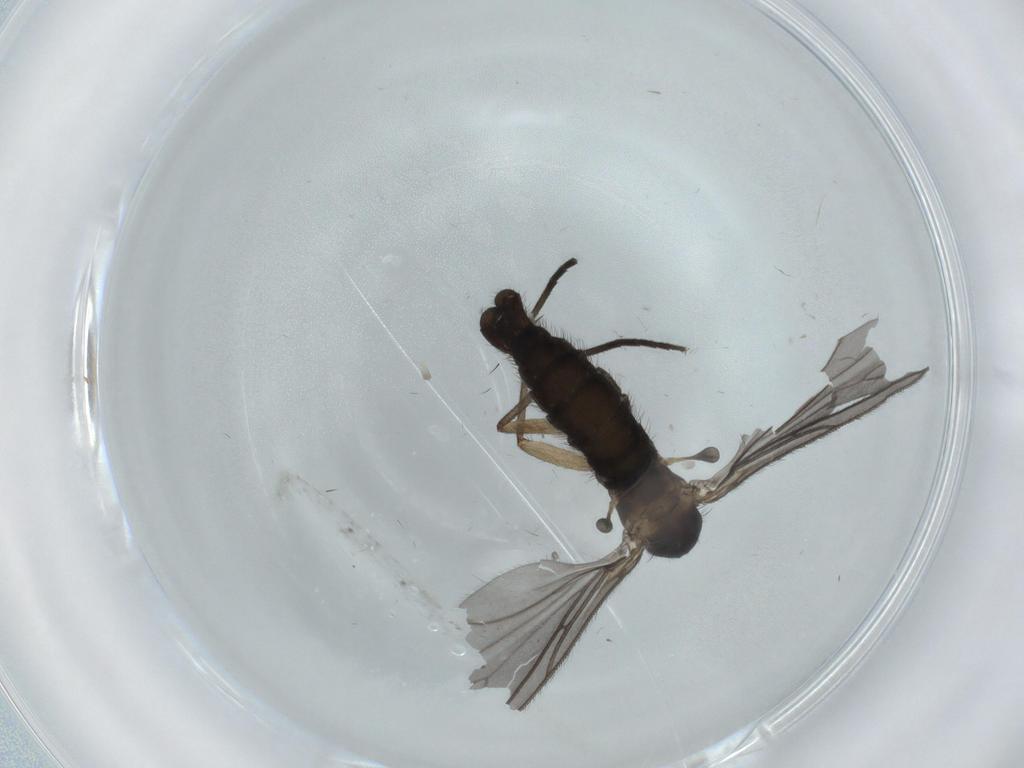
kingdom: Animalia
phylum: Arthropoda
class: Insecta
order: Diptera
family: Sciaridae
